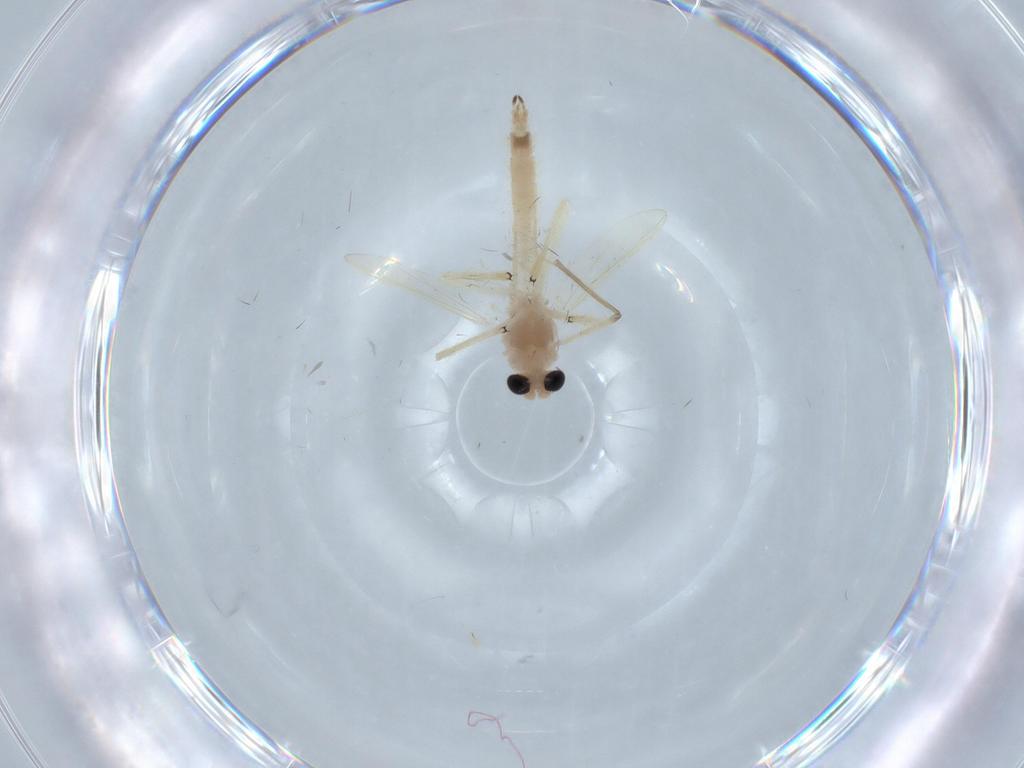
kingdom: Animalia
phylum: Arthropoda
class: Insecta
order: Diptera
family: Chironomidae
